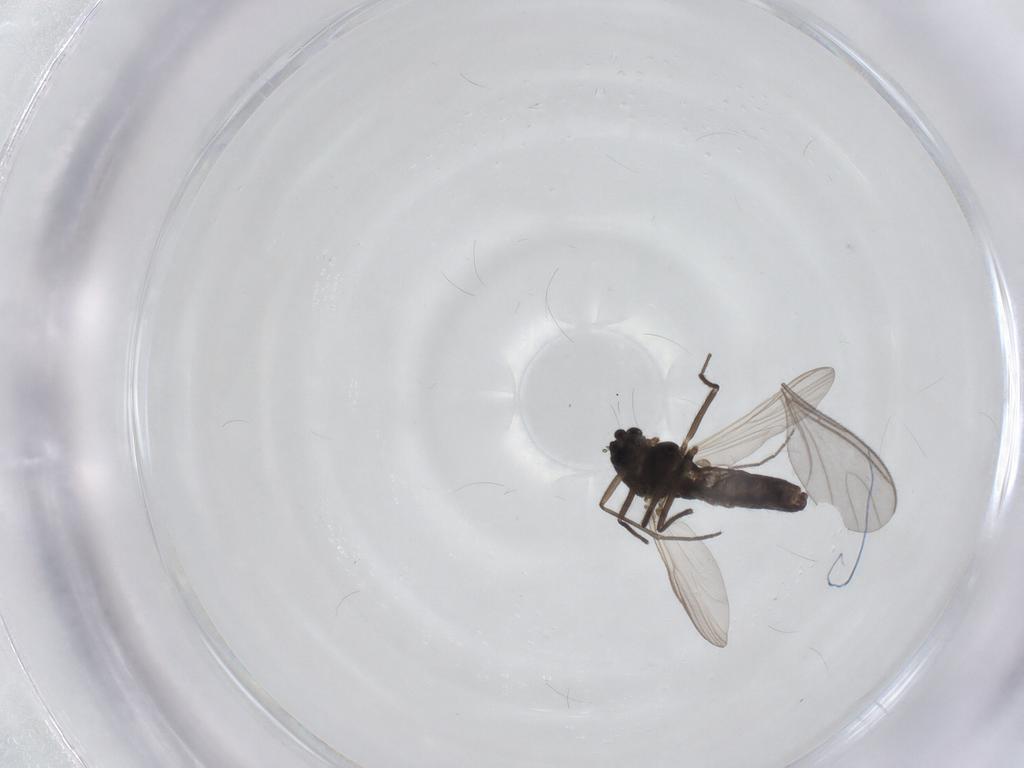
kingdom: Animalia
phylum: Arthropoda
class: Insecta
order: Diptera
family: Chironomidae
